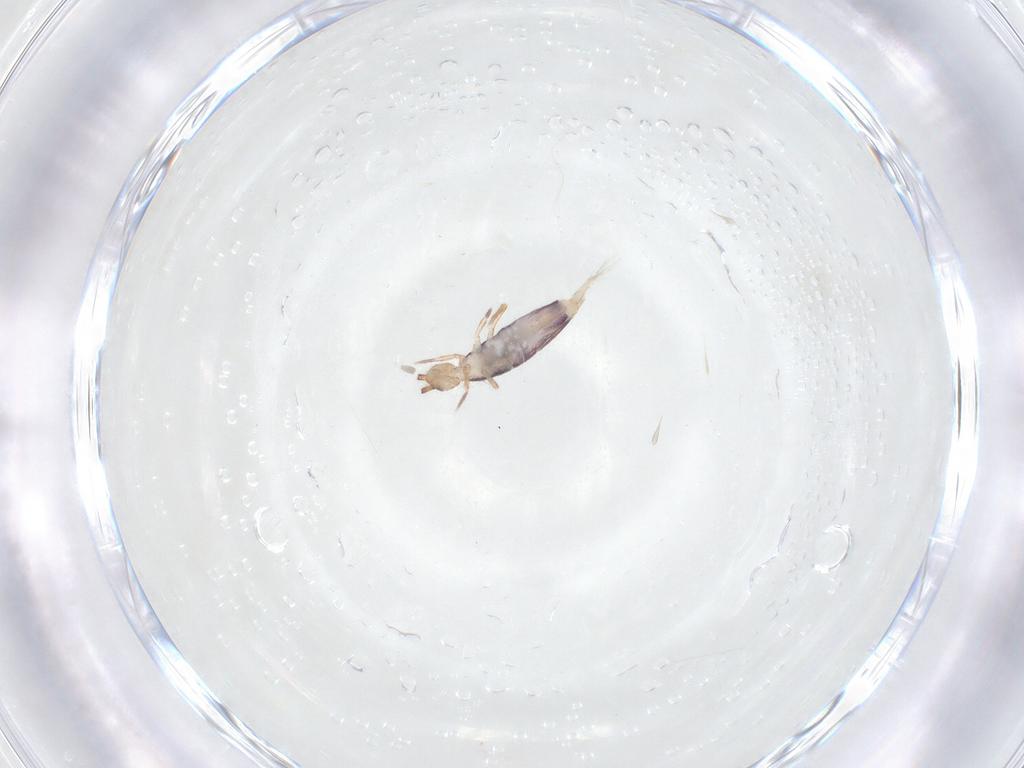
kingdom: Animalia
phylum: Arthropoda
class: Collembola
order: Entomobryomorpha
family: Entomobryidae
